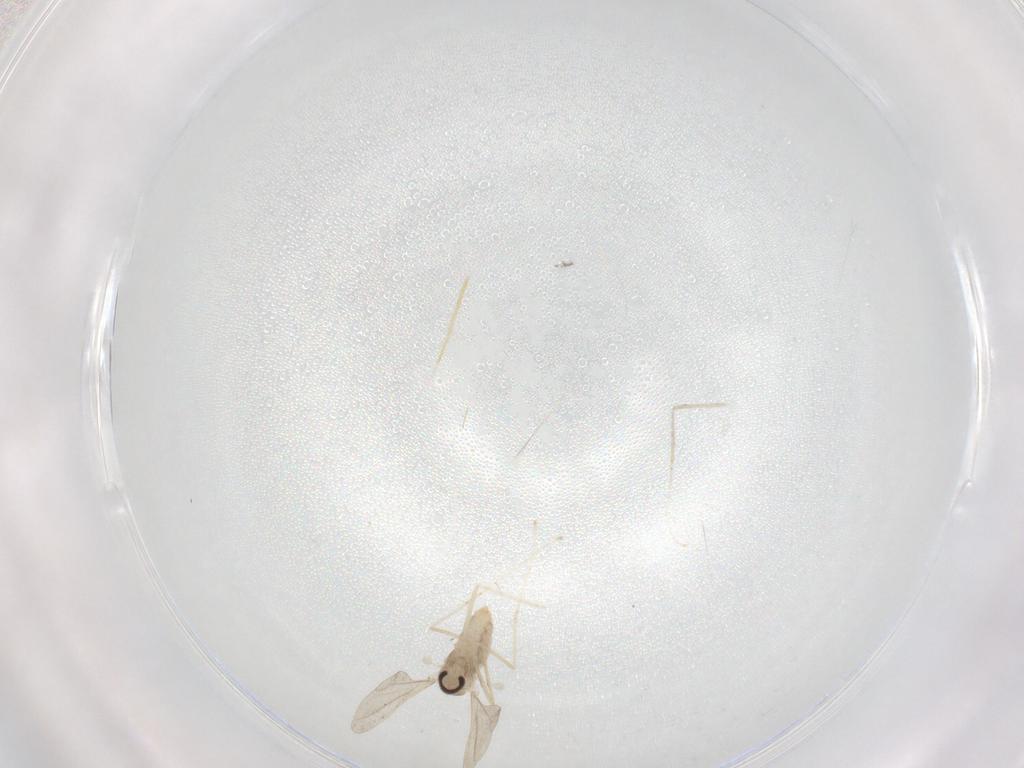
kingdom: Animalia
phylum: Arthropoda
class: Insecta
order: Diptera
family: Cecidomyiidae
